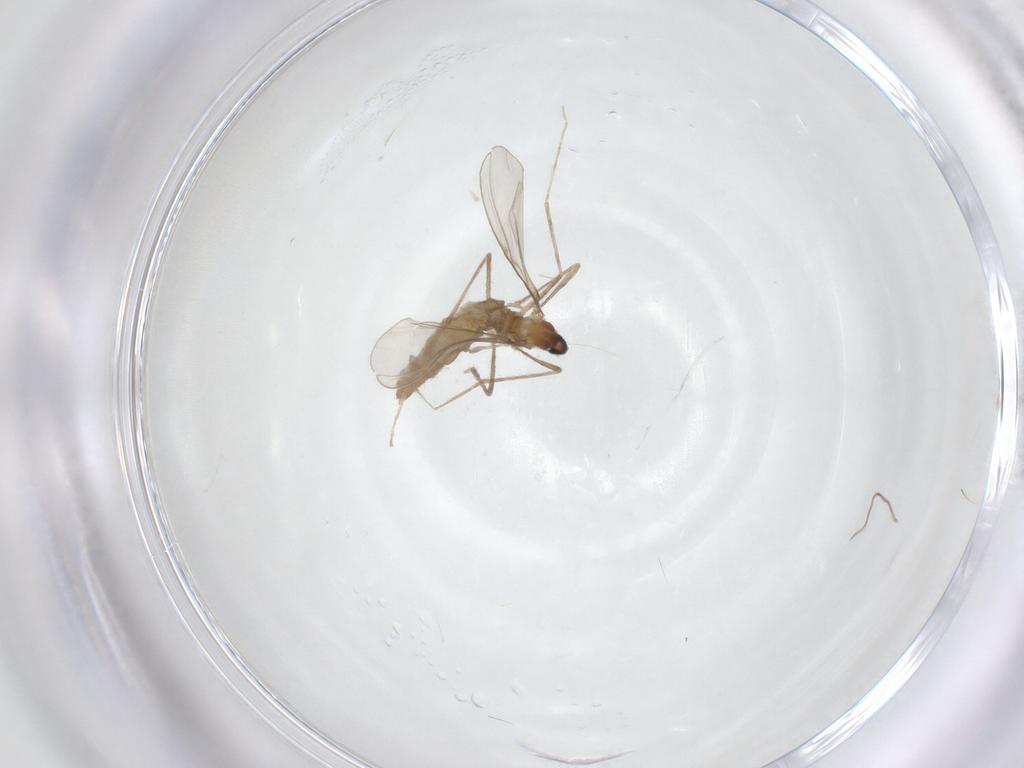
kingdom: Animalia
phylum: Arthropoda
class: Insecta
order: Diptera
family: Cecidomyiidae
